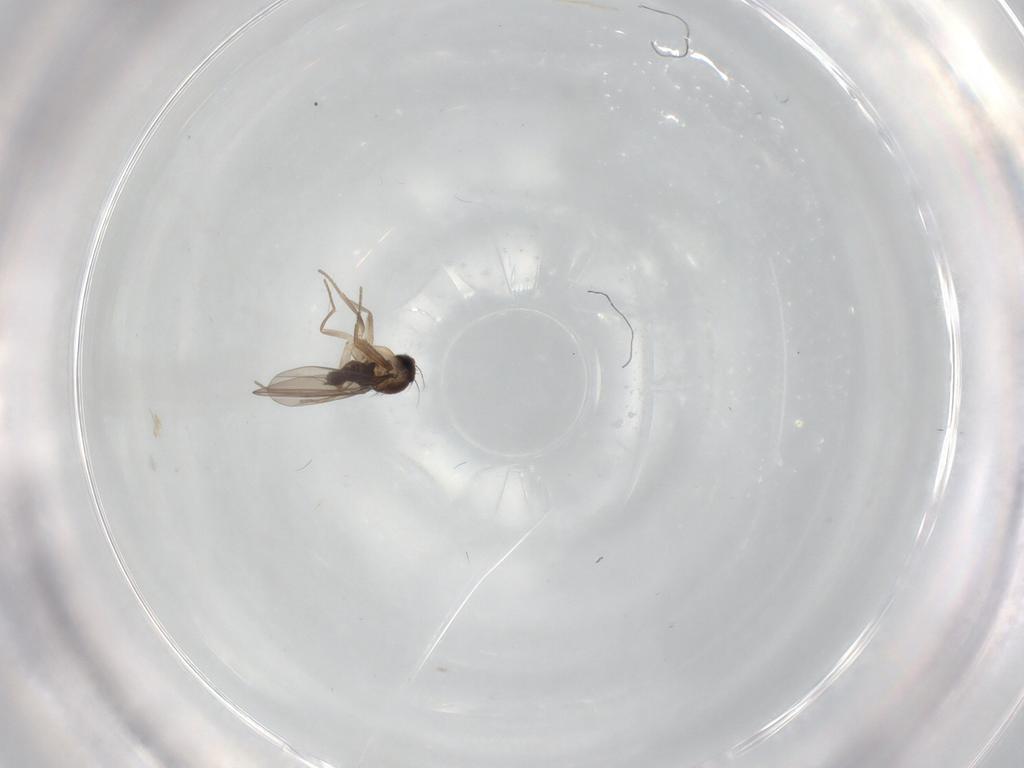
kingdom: Animalia
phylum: Arthropoda
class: Insecta
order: Diptera
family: Phoridae
